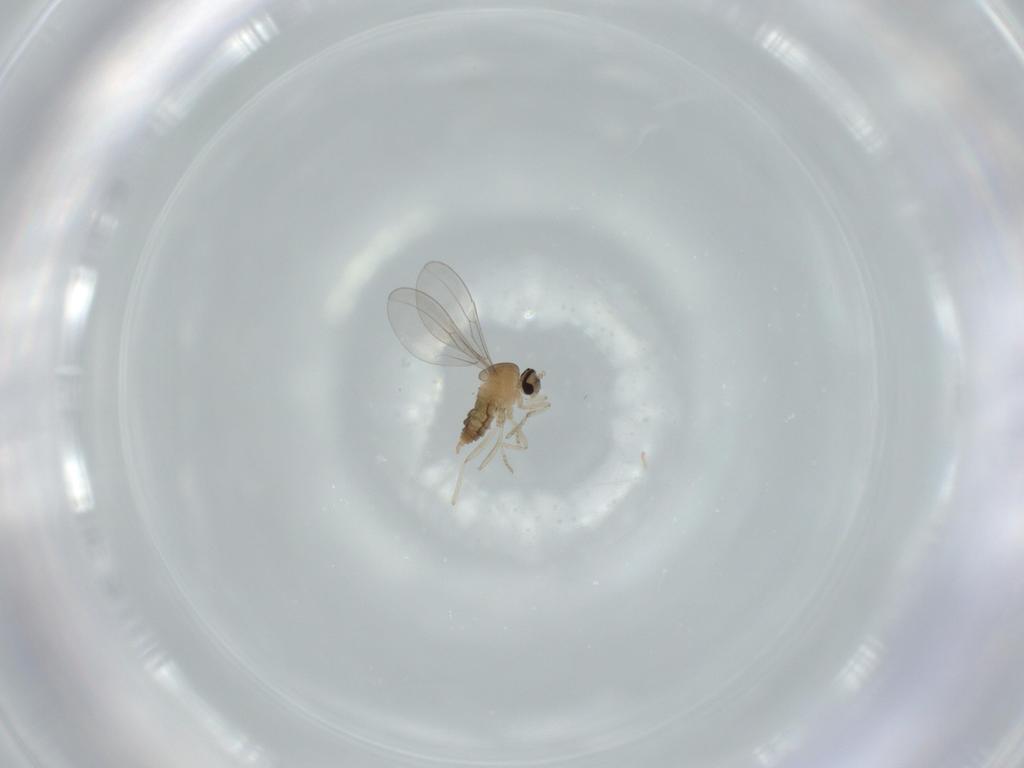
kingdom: Animalia
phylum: Arthropoda
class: Insecta
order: Diptera
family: Cecidomyiidae
